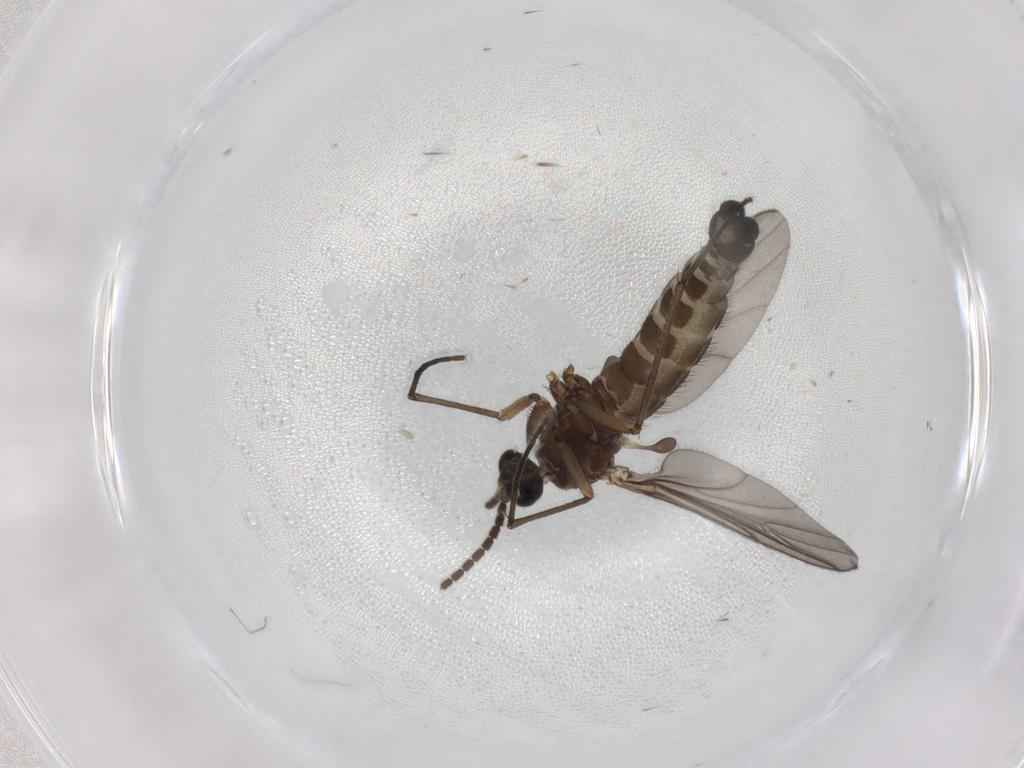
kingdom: Animalia
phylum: Arthropoda
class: Insecta
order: Diptera
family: Sciaridae
